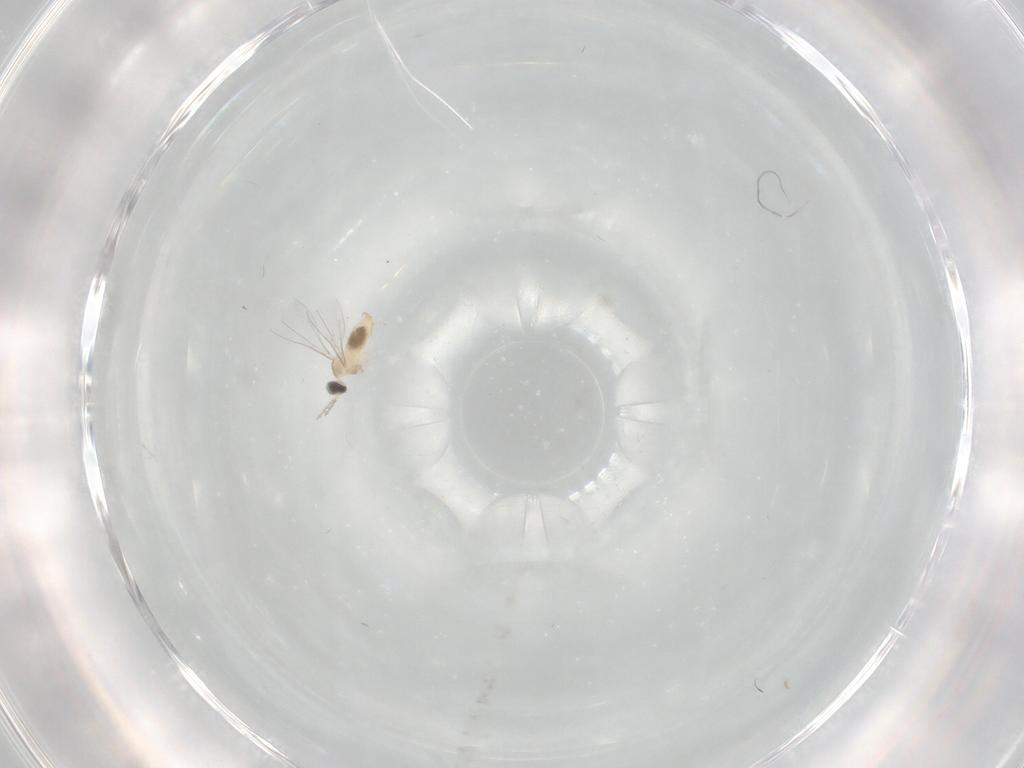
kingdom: Animalia
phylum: Arthropoda
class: Insecta
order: Diptera
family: Cecidomyiidae
